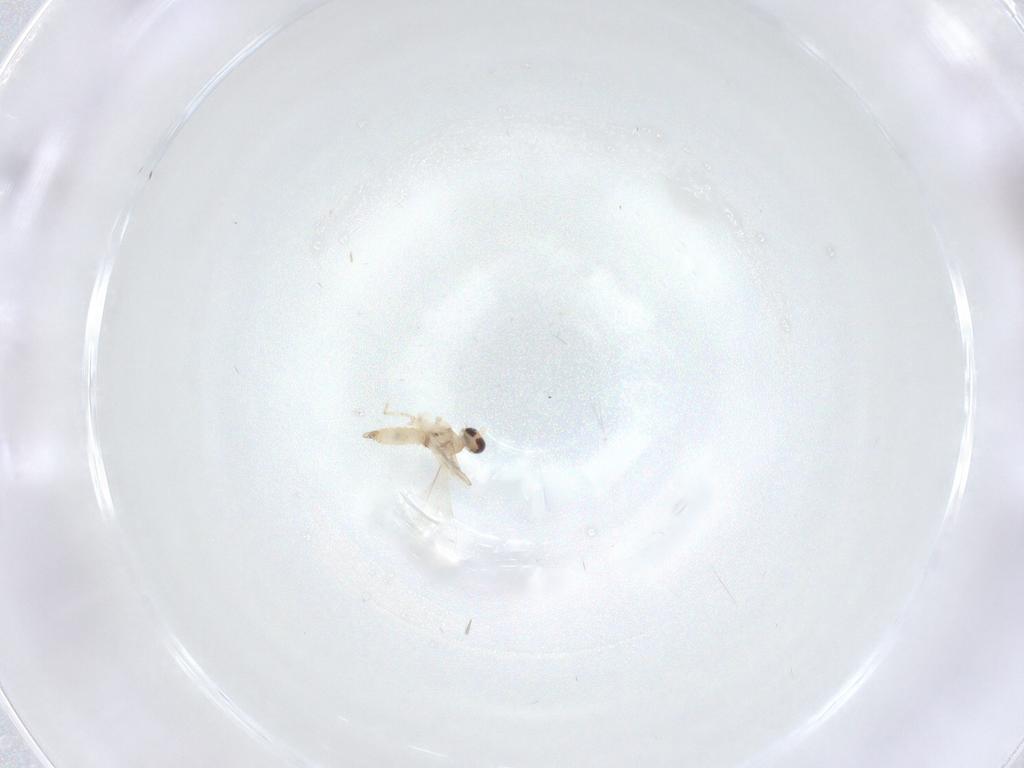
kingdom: Animalia
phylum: Arthropoda
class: Insecta
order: Diptera
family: Cecidomyiidae
